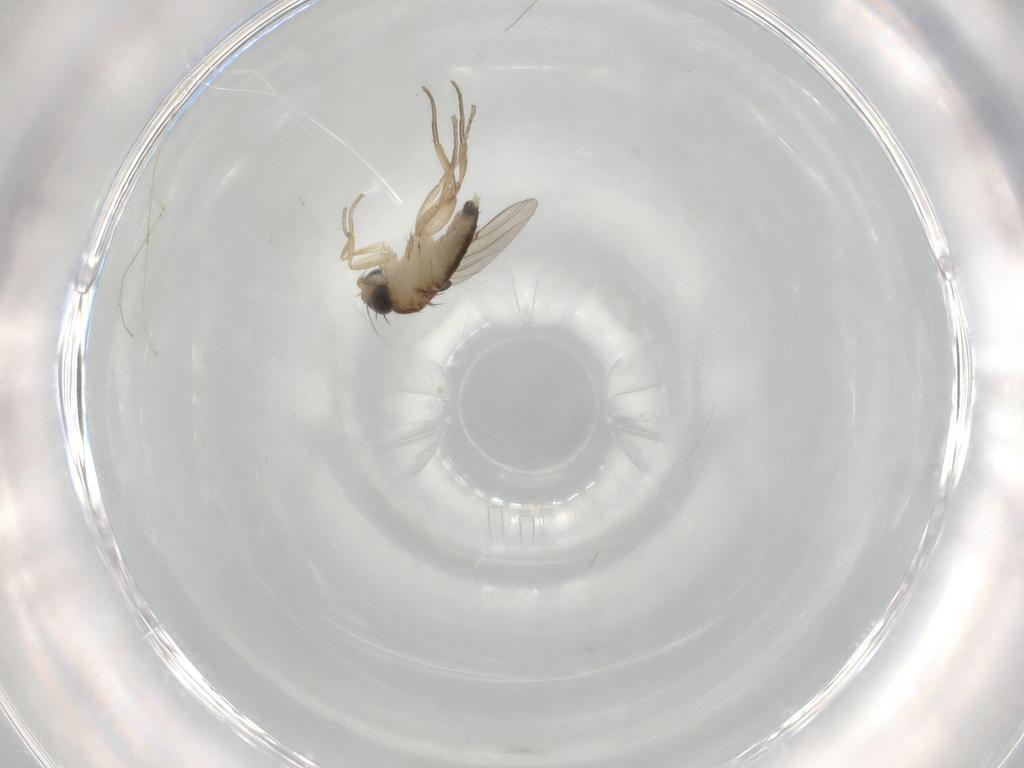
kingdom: Animalia
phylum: Arthropoda
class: Insecta
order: Diptera
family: Phoridae
